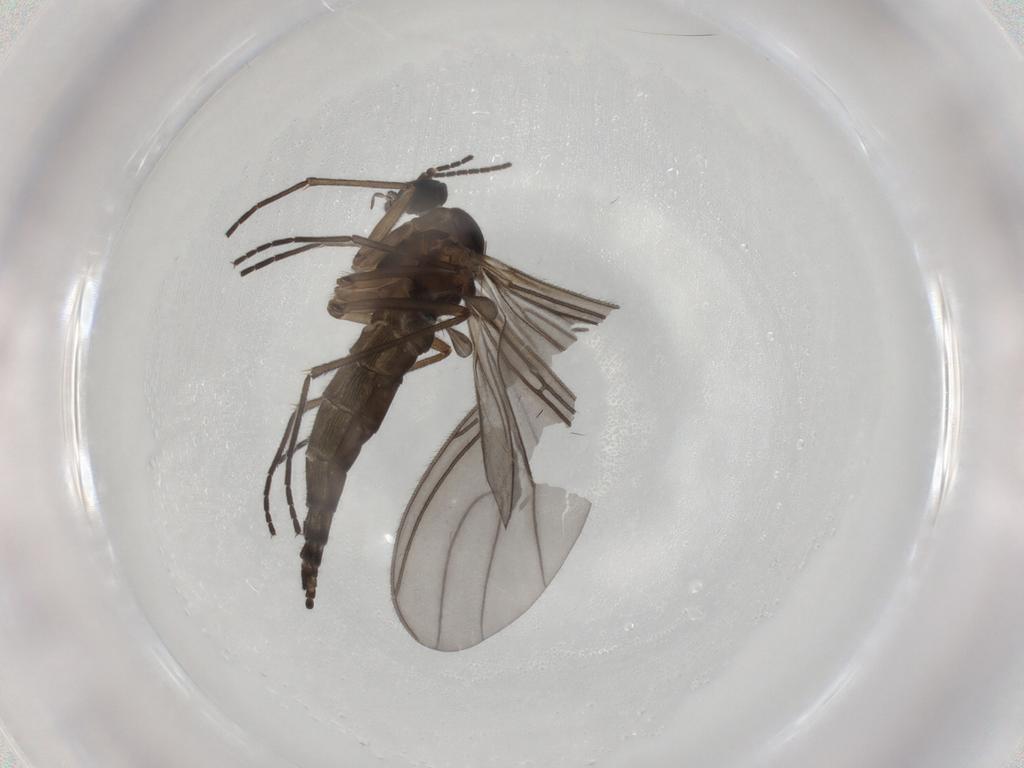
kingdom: Animalia
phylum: Arthropoda
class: Insecta
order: Diptera
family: Sciaridae
